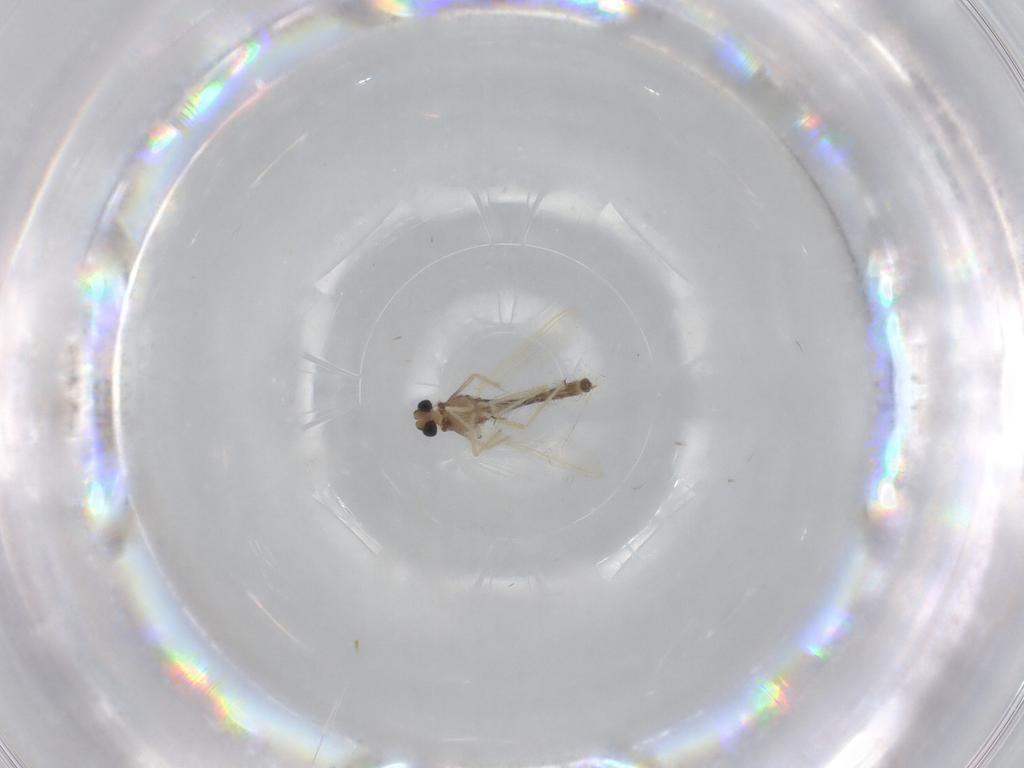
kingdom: Animalia
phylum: Arthropoda
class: Insecta
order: Diptera
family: Chironomidae
